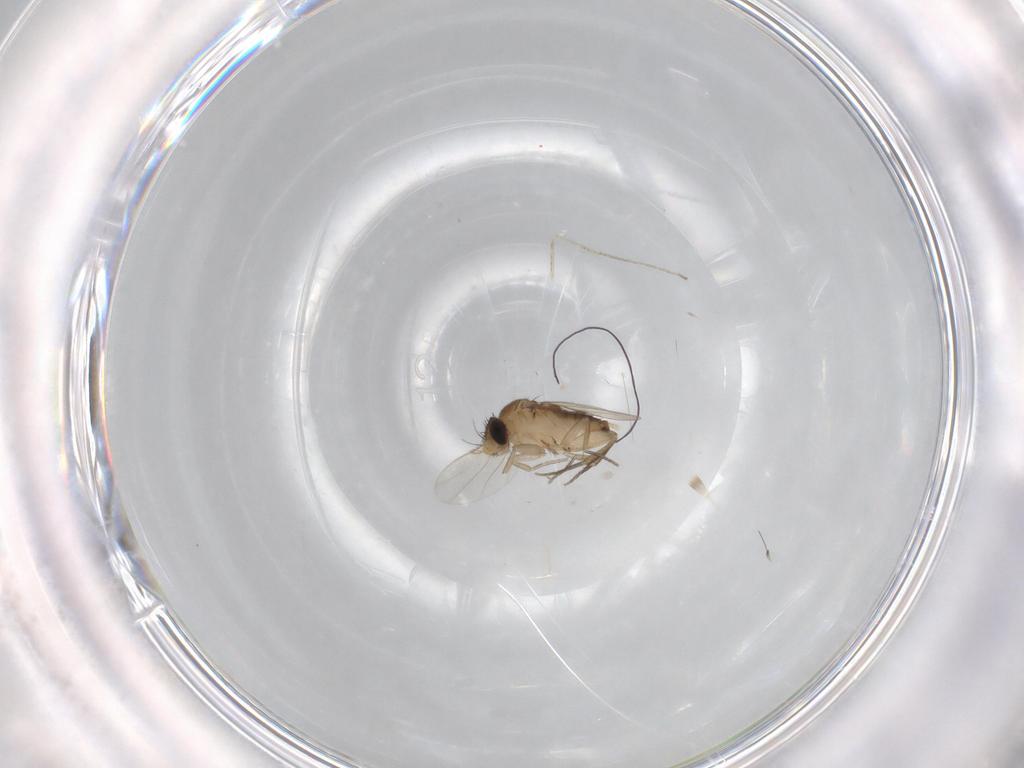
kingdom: Animalia
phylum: Arthropoda
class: Insecta
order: Diptera
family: Phoridae
